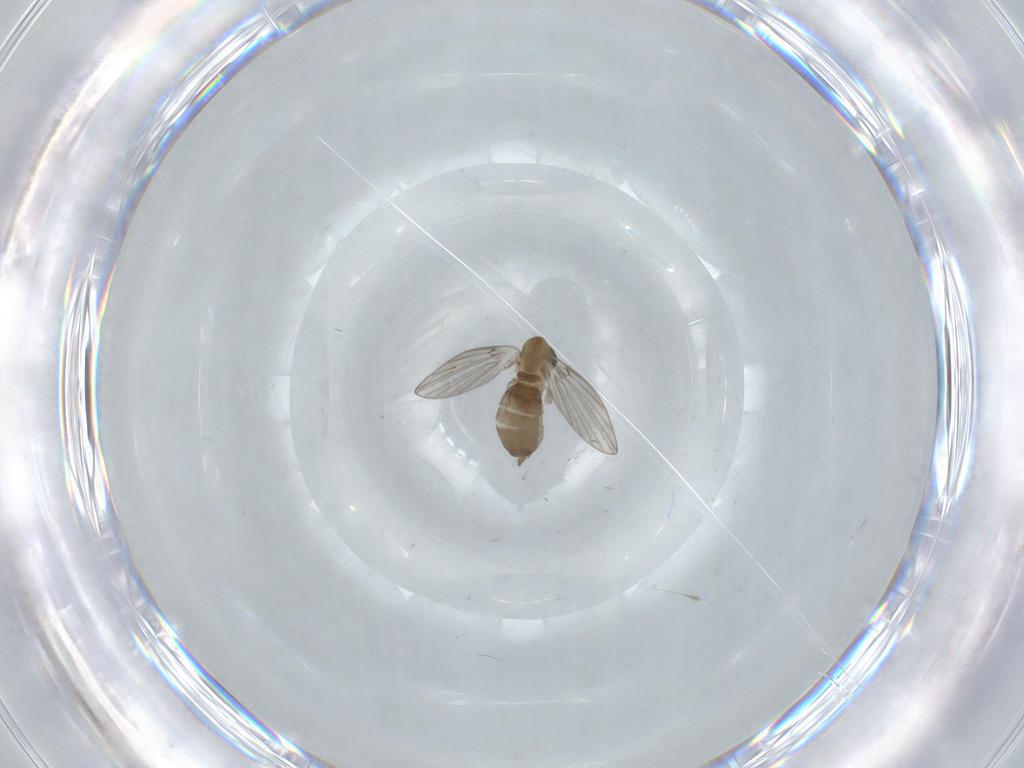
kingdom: Animalia
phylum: Arthropoda
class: Insecta
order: Diptera
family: Psychodidae
